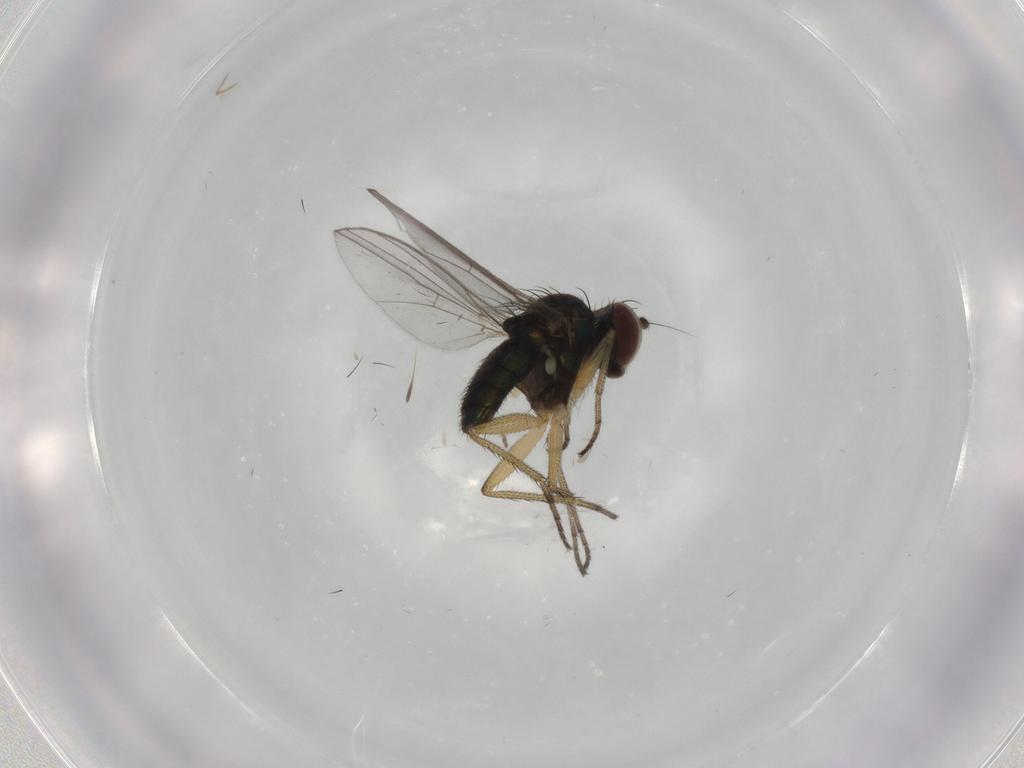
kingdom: Animalia
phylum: Arthropoda
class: Insecta
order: Diptera
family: Dolichopodidae
